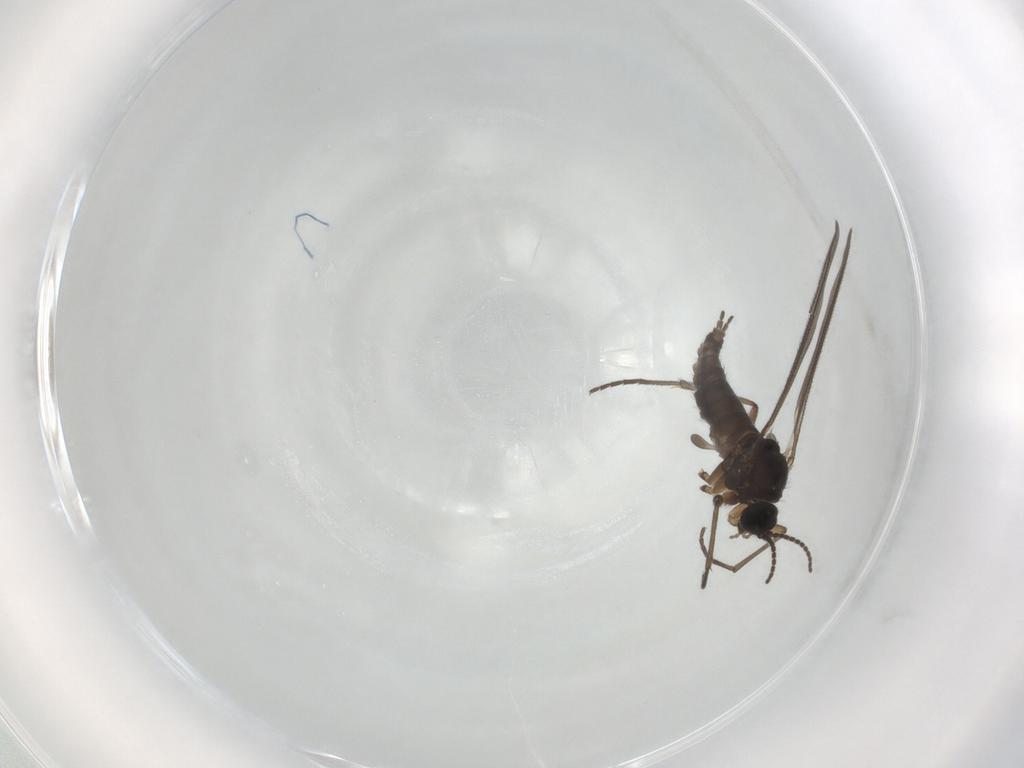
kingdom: Animalia
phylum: Arthropoda
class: Insecta
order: Diptera
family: Sciaridae
